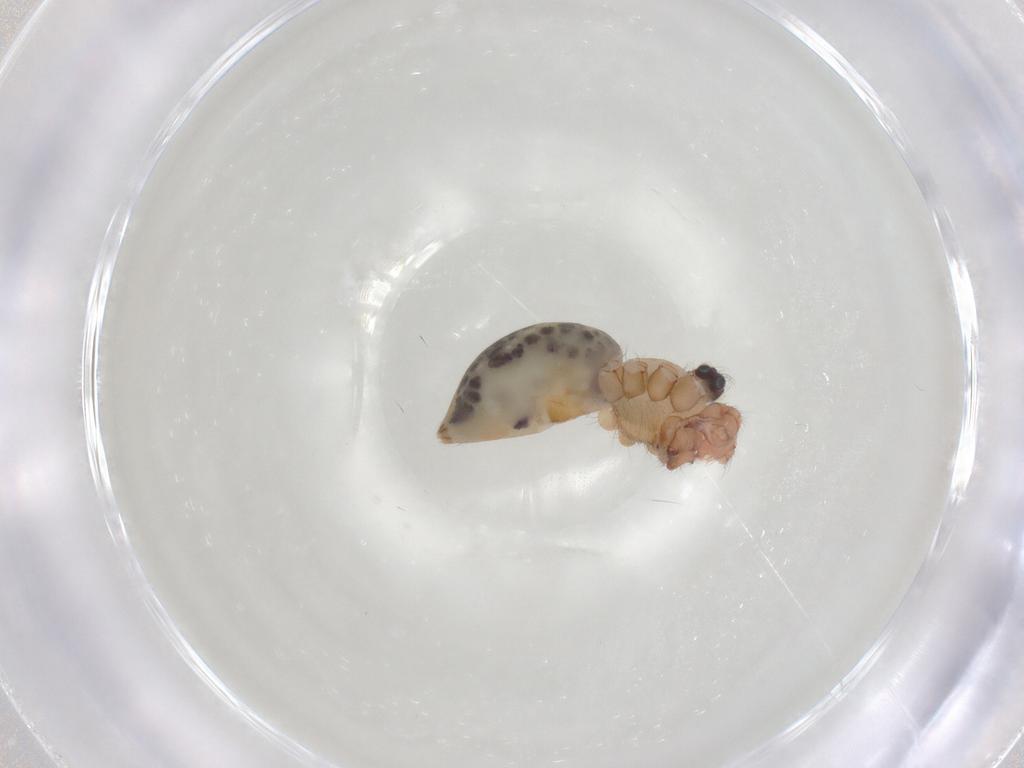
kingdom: Animalia
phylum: Arthropoda
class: Arachnida
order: Araneae
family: Pholcidae
